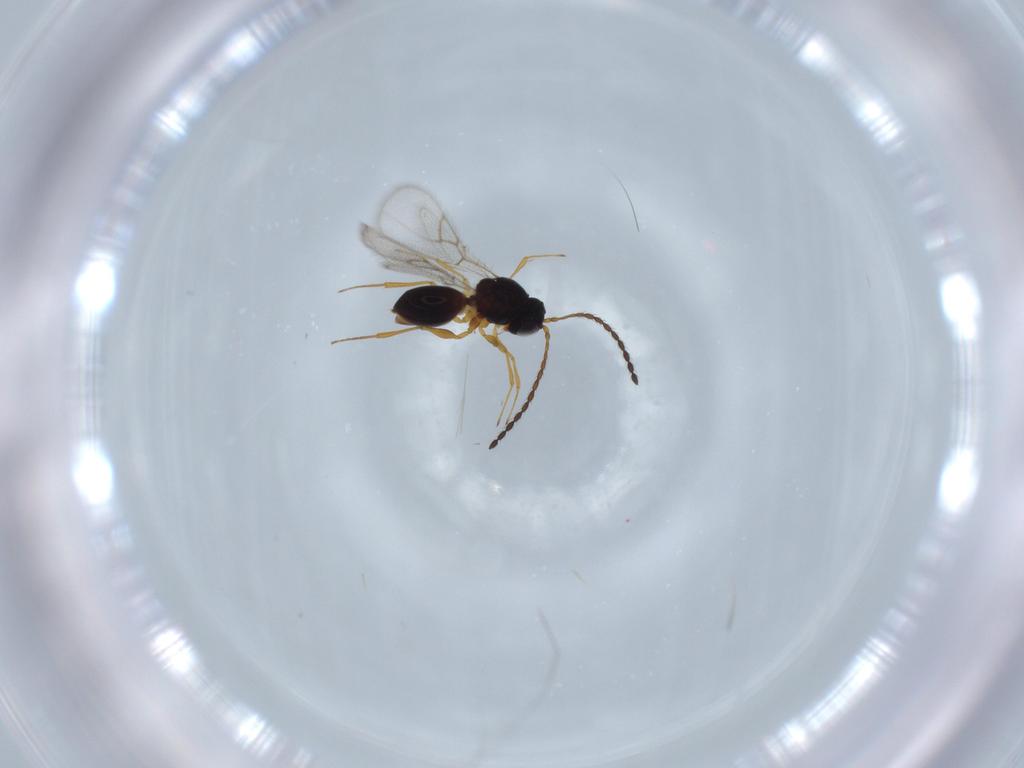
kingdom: Animalia
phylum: Arthropoda
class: Insecta
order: Hymenoptera
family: Figitidae
